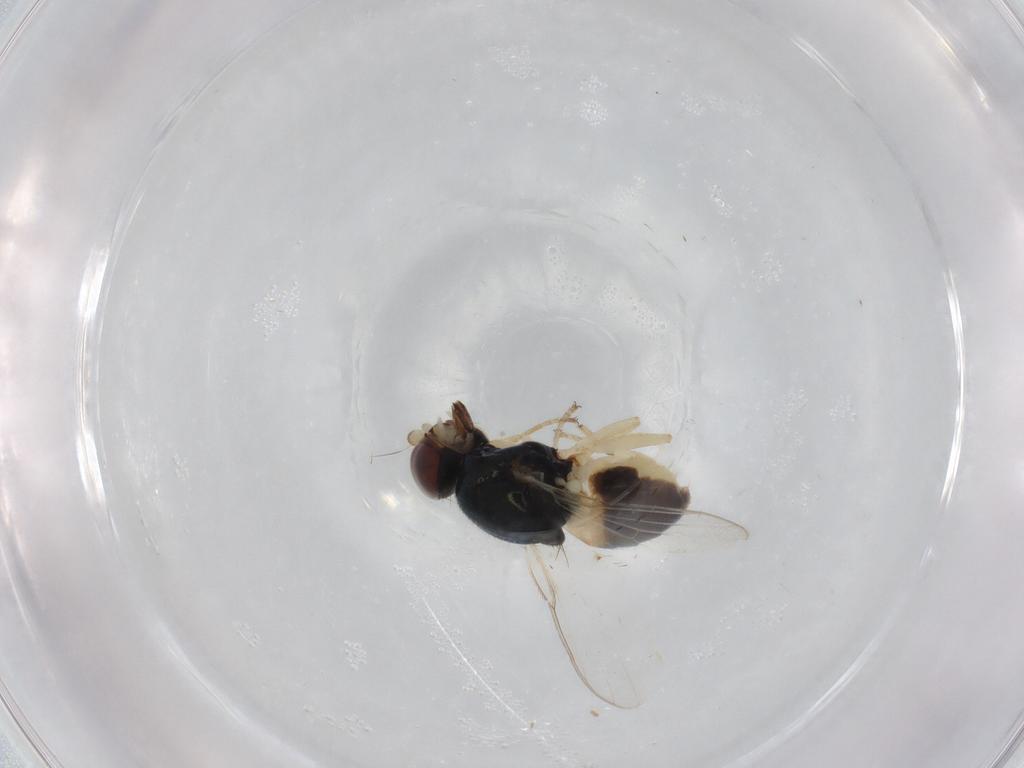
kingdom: Animalia
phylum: Arthropoda
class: Insecta
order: Diptera
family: Chloropidae
